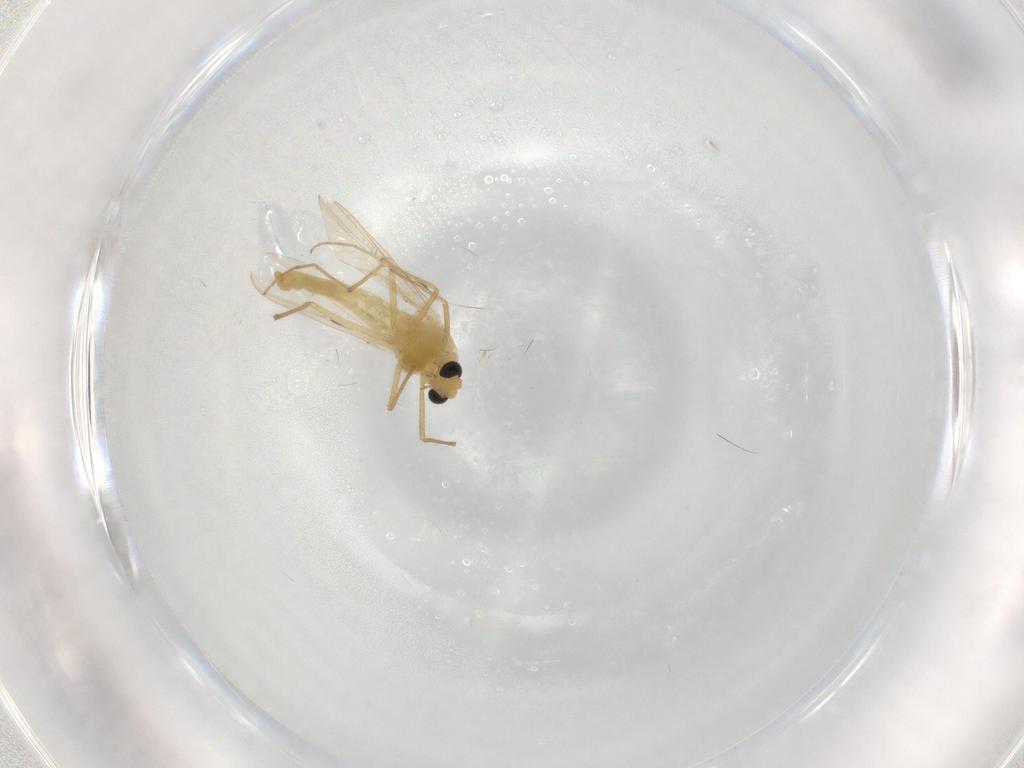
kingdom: Animalia
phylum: Arthropoda
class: Insecta
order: Diptera
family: Chironomidae
